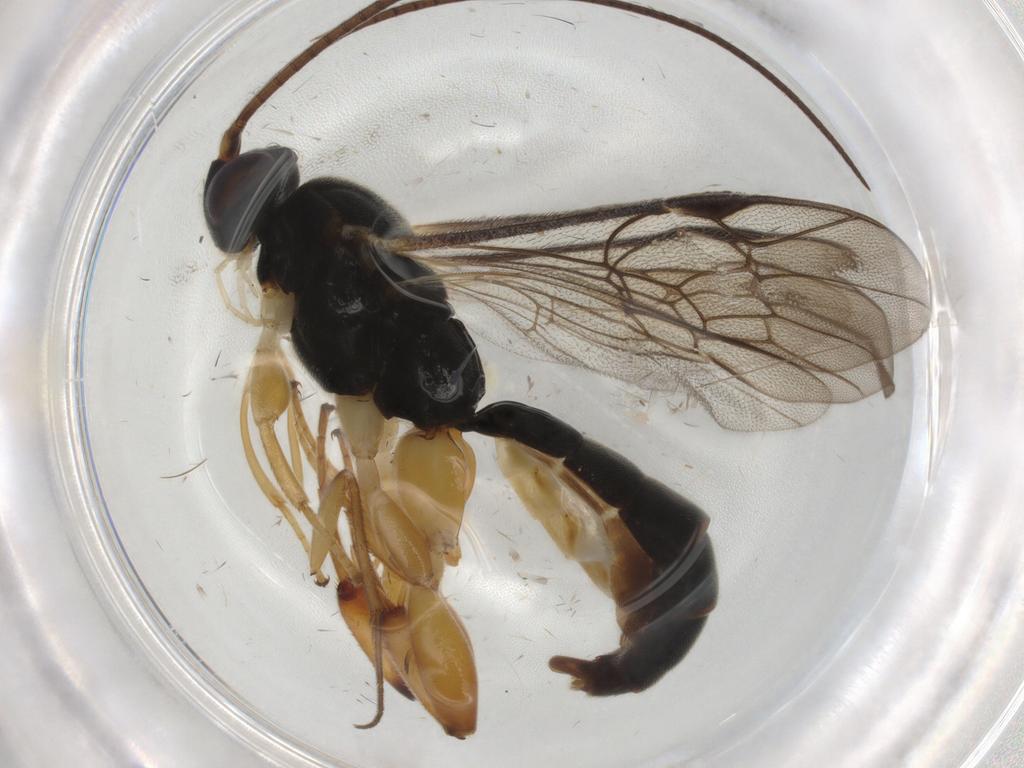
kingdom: Animalia
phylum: Arthropoda
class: Insecta
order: Hymenoptera
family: Ichneumonidae
